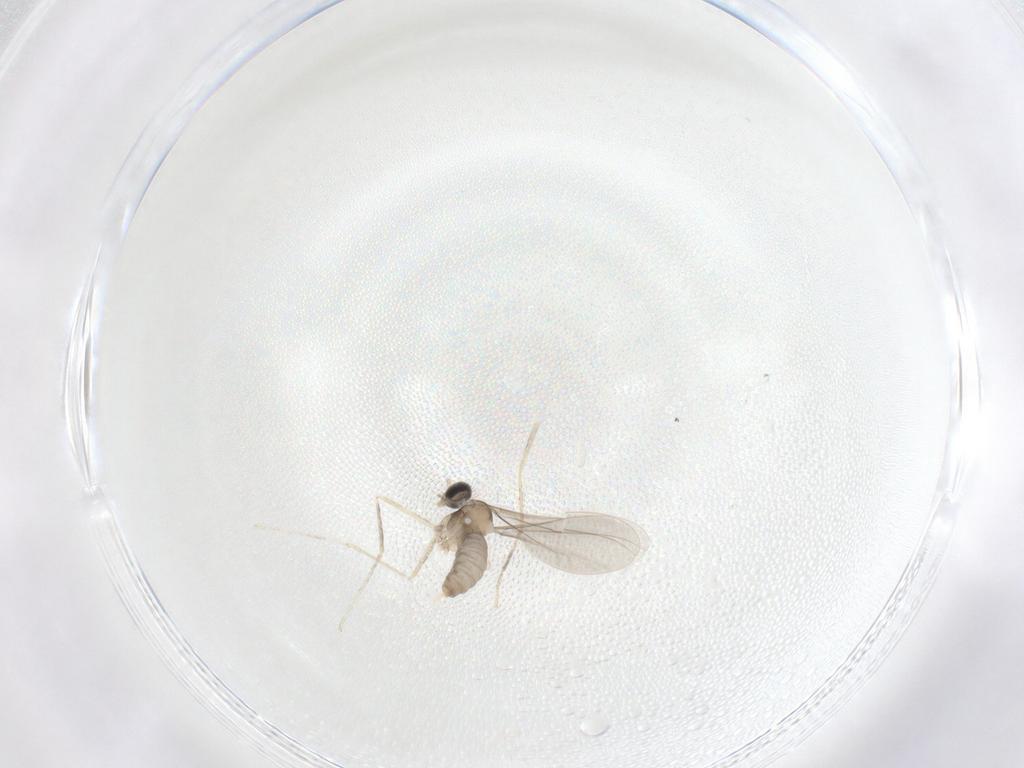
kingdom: Animalia
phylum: Arthropoda
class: Insecta
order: Diptera
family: Cecidomyiidae
